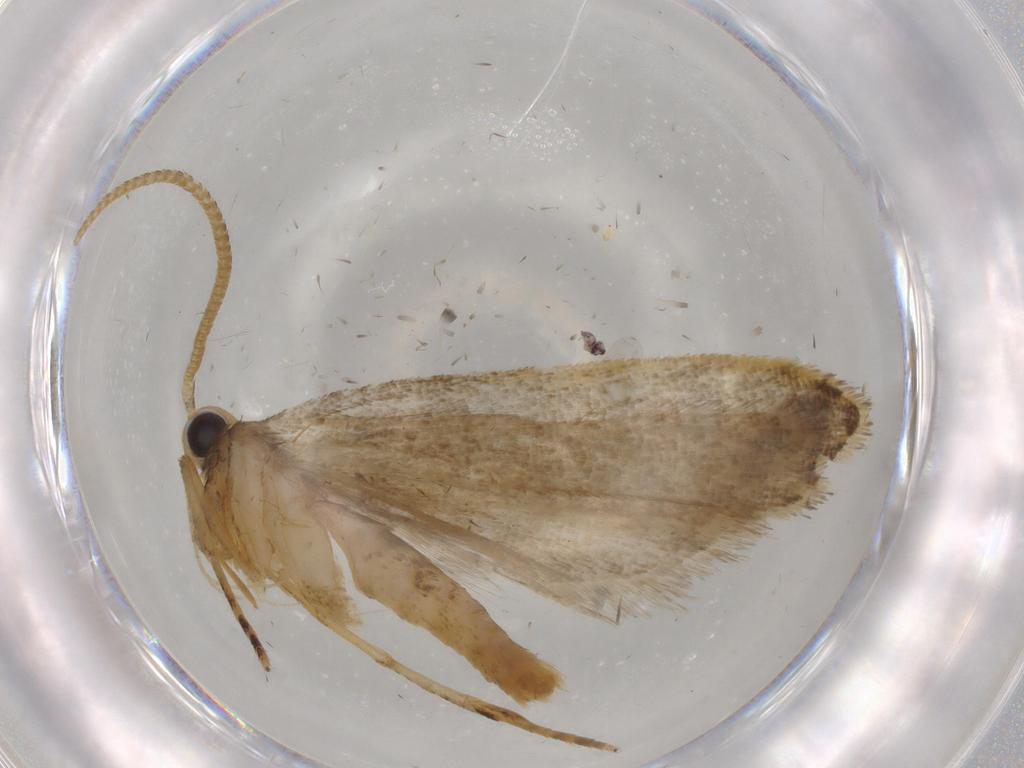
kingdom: Animalia
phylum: Arthropoda
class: Insecta
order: Lepidoptera
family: Autostichidae
